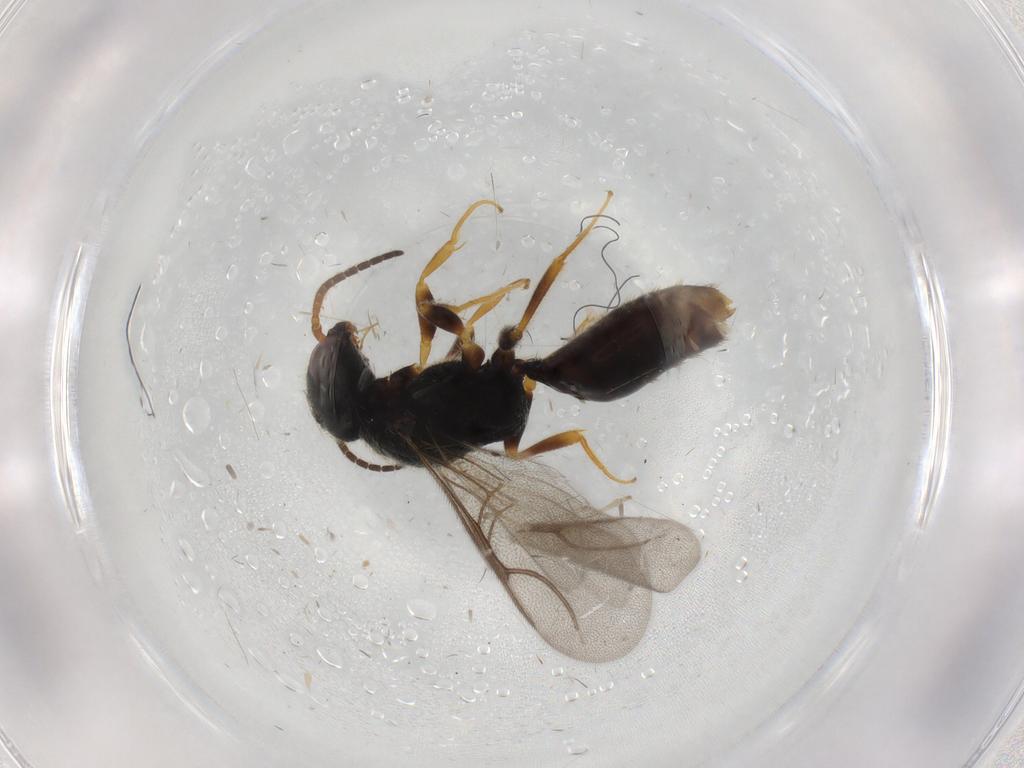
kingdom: Animalia
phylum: Arthropoda
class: Insecta
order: Hymenoptera
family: Bethylidae
